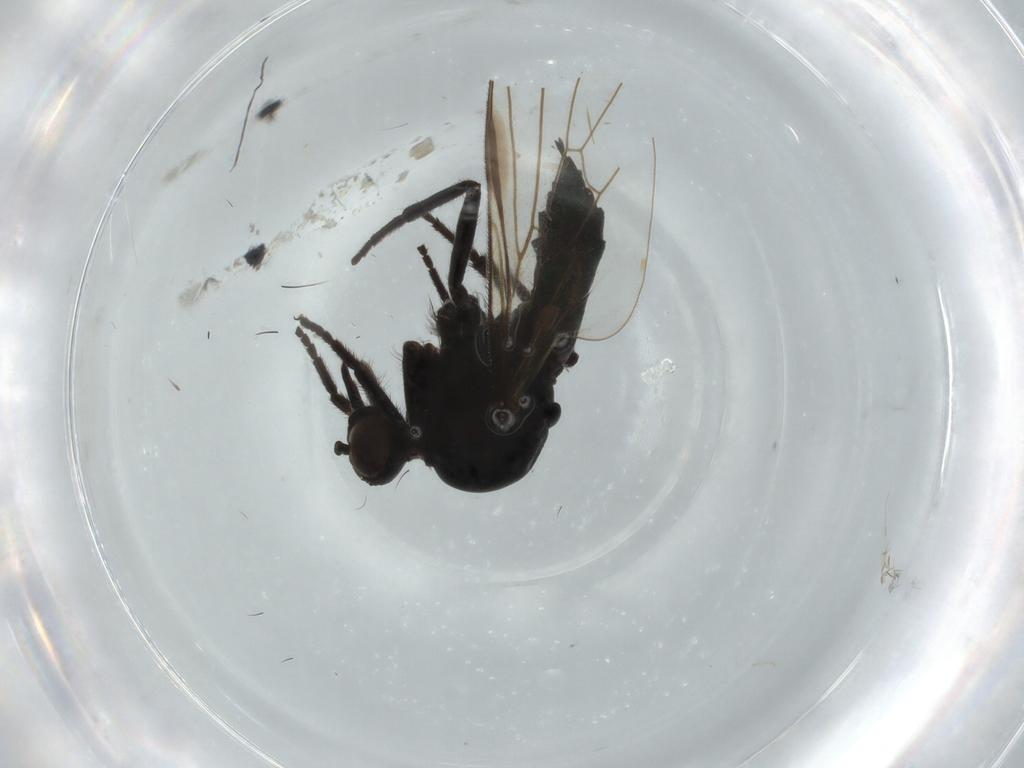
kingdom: Animalia
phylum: Arthropoda
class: Insecta
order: Diptera
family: Empididae
